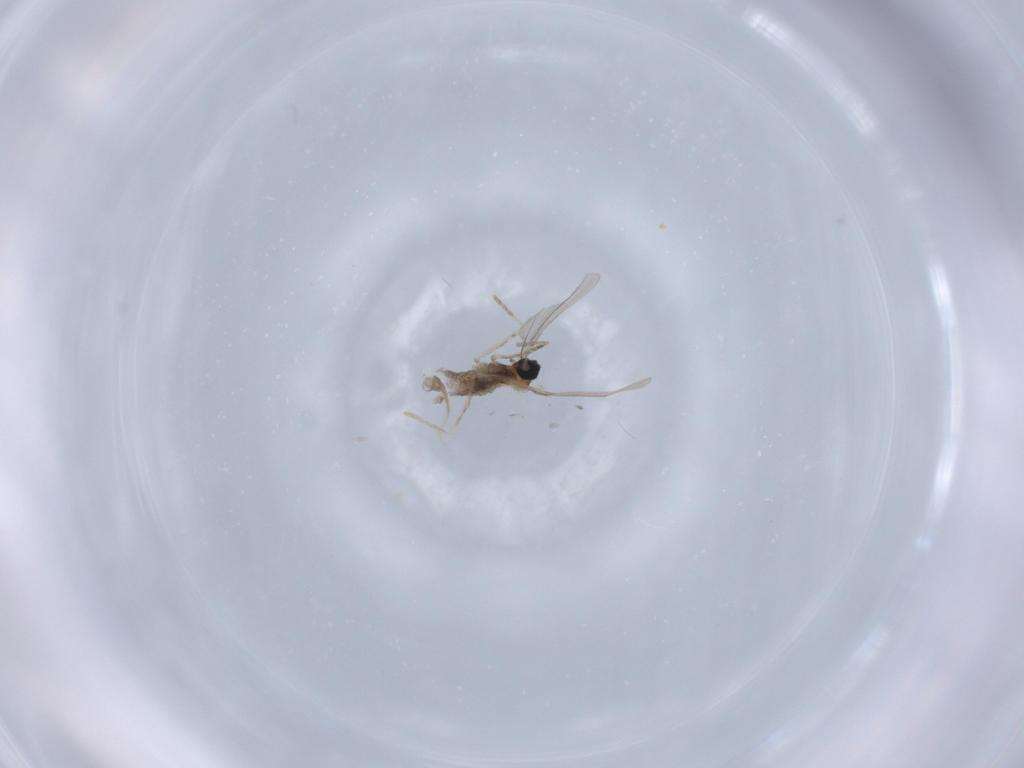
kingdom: Animalia
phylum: Arthropoda
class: Insecta
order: Diptera
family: Cecidomyiidae
